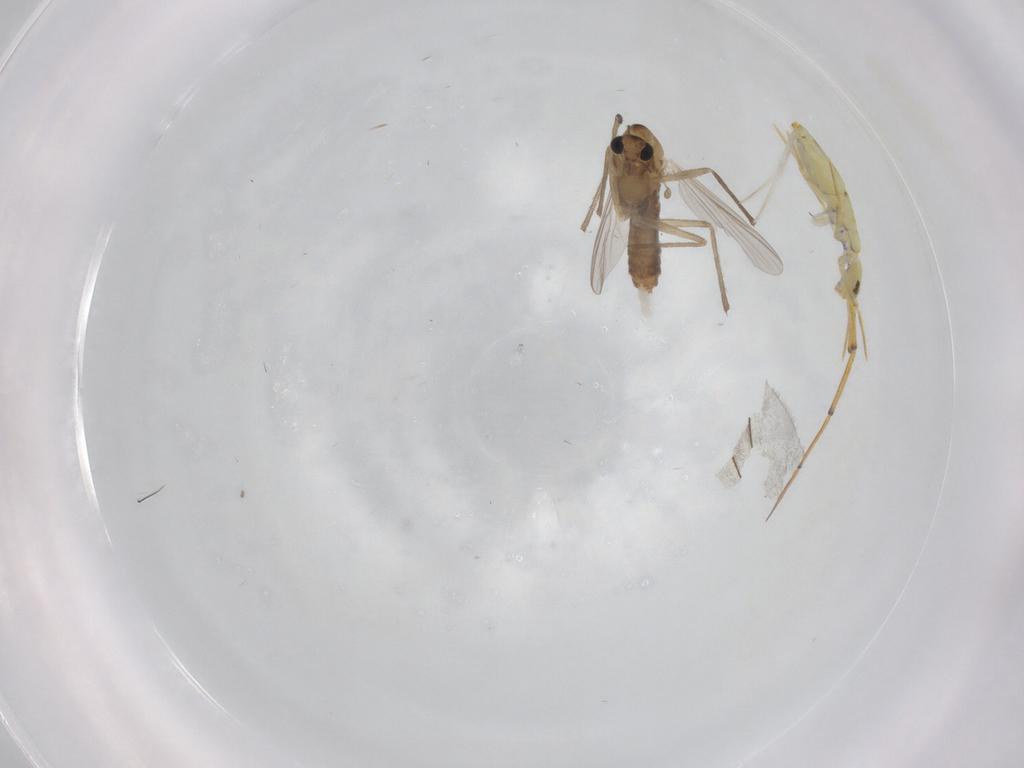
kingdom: Animalia
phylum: Arthropoda
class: Insecta
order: Diptera
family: Chironomidae
